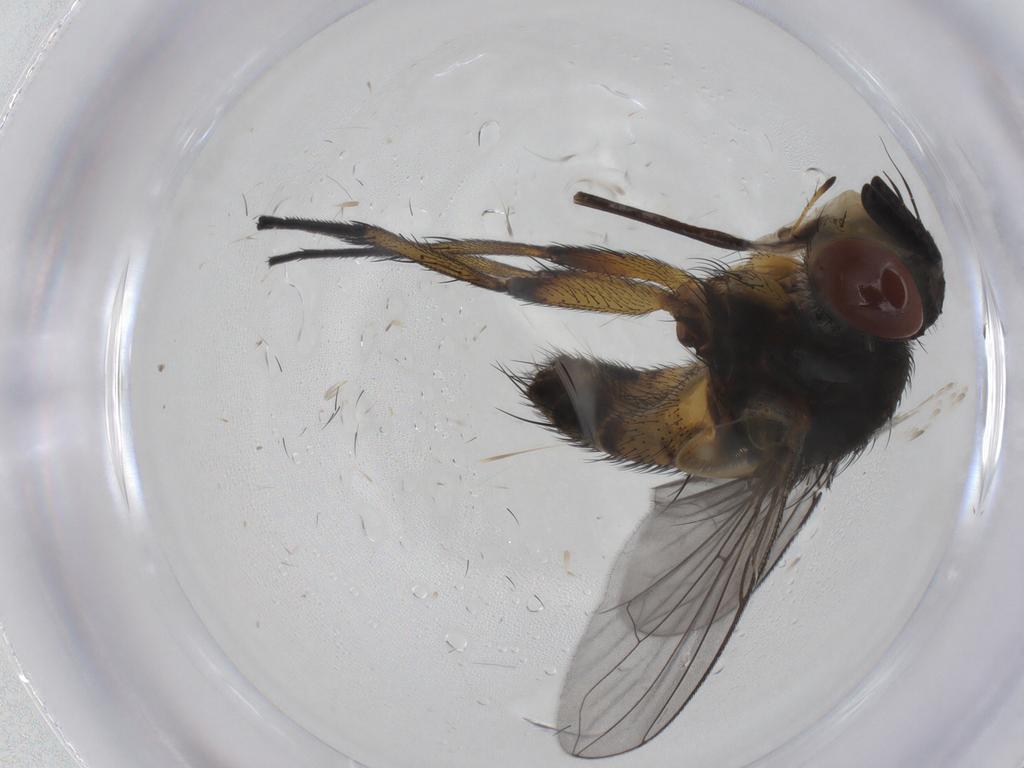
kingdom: Animalia
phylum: Arthropoda
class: Insecta
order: Diptera
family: Tachinidae
